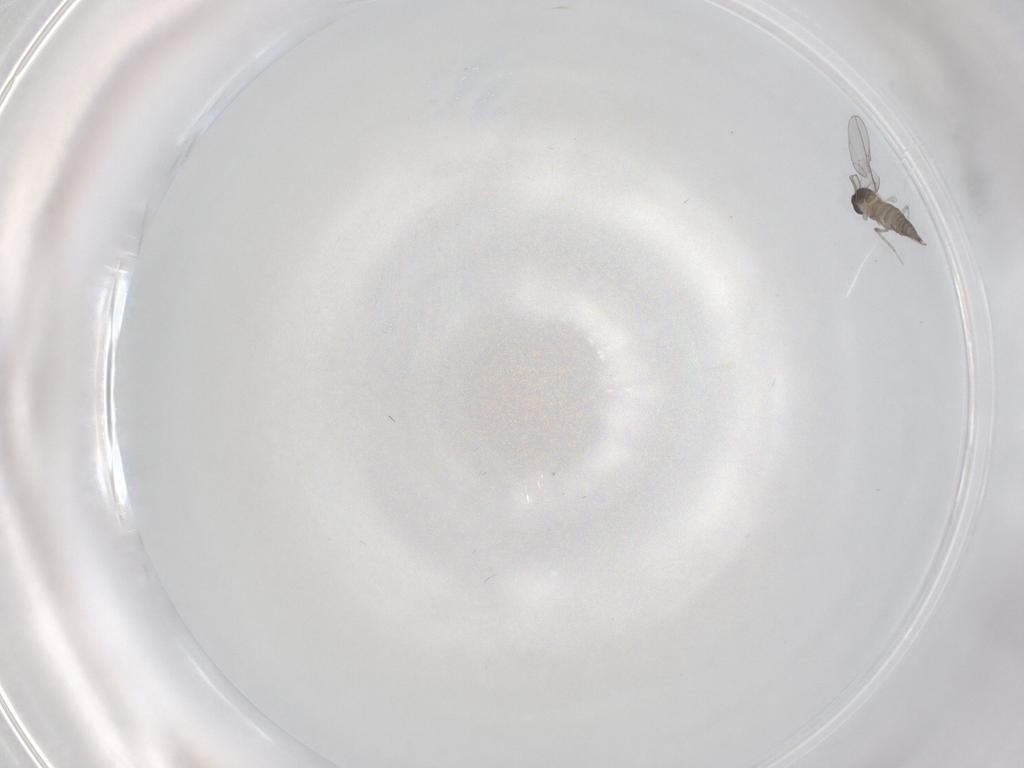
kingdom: Animalia
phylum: Arthropoda
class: Insecta
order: Diptera
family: Cecidomyiidae
